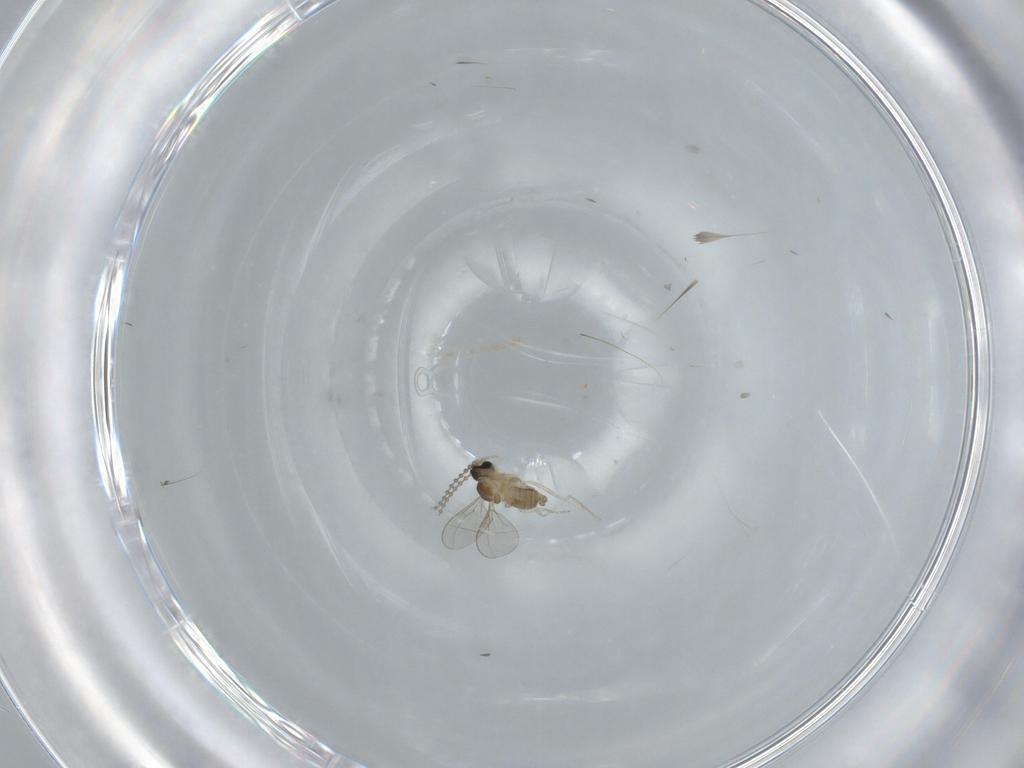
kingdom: Animalia
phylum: Arthropoda
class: Insecta
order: Diptera
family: Cecidomyiidae
